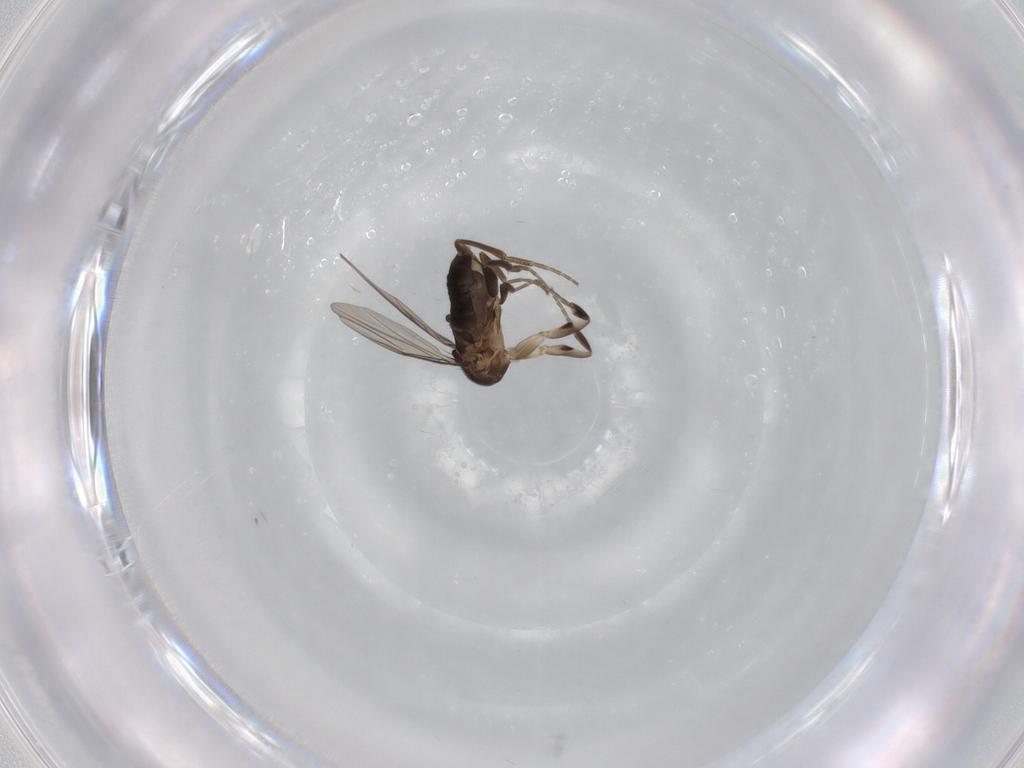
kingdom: Animalia
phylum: Arthropoda
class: Insecta
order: Diptera
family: Phoridae
